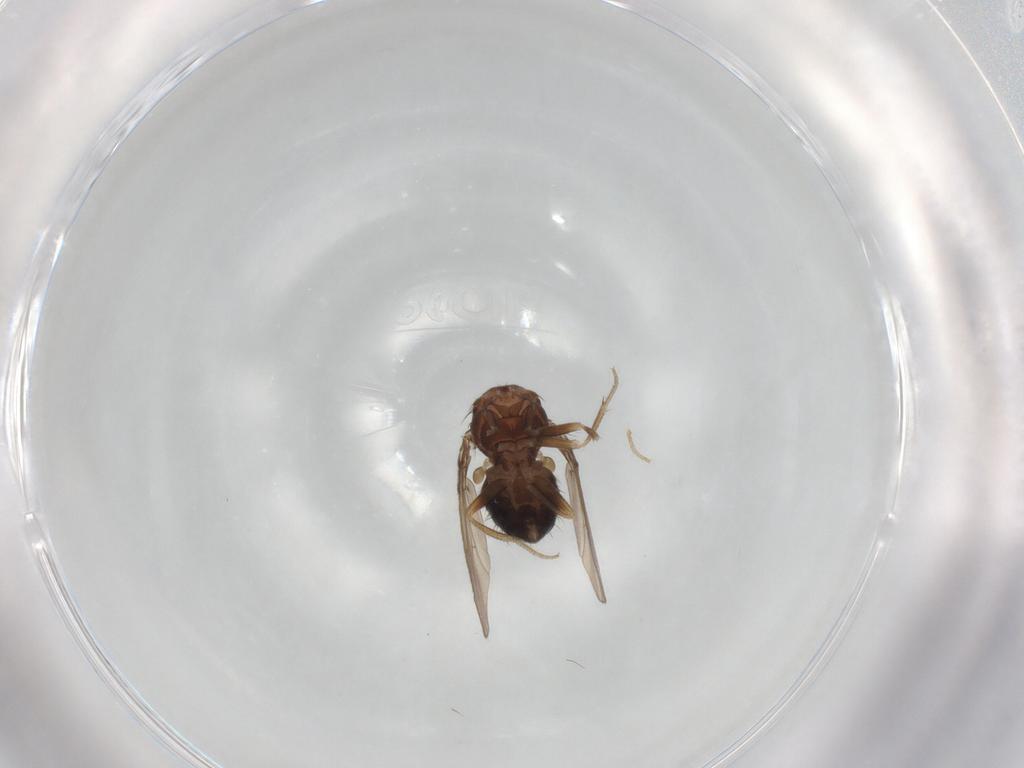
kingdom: Animalia
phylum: Arthropoda
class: Insecta
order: Diptera
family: Drosophilidae
